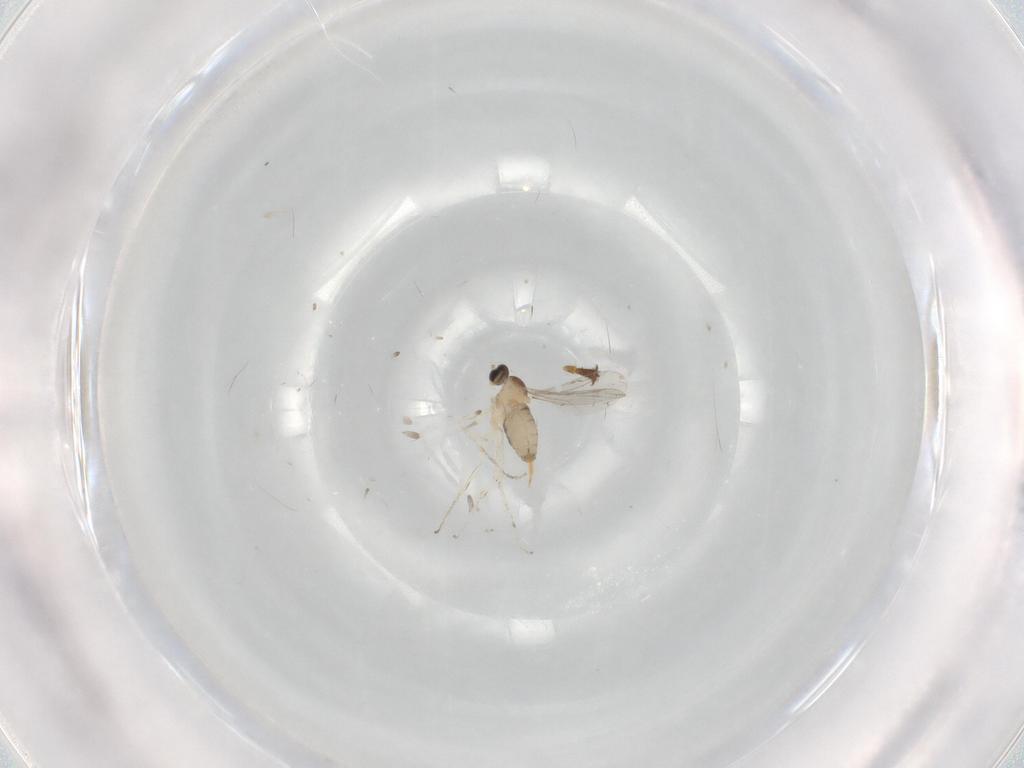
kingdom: Animalia
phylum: Arthropoda
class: Insecta
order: Diptera
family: Cecidomyiidae
